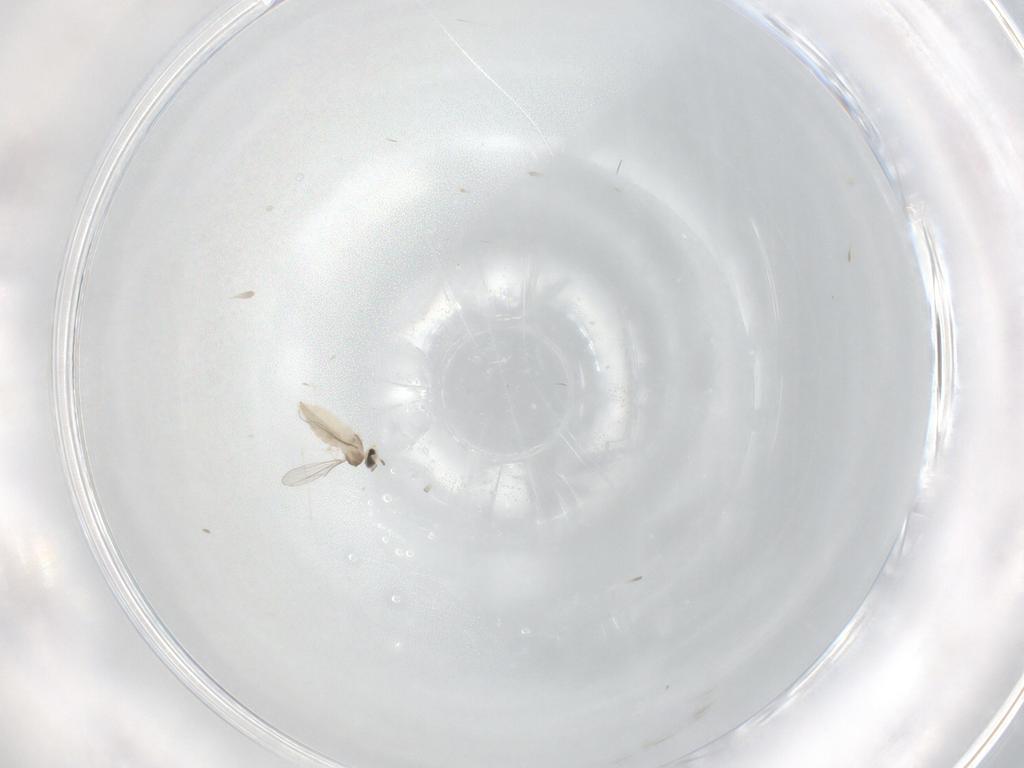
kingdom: Animalia
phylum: Arthropoda
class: Insecta
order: Diptera
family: Cecidomyiidae
